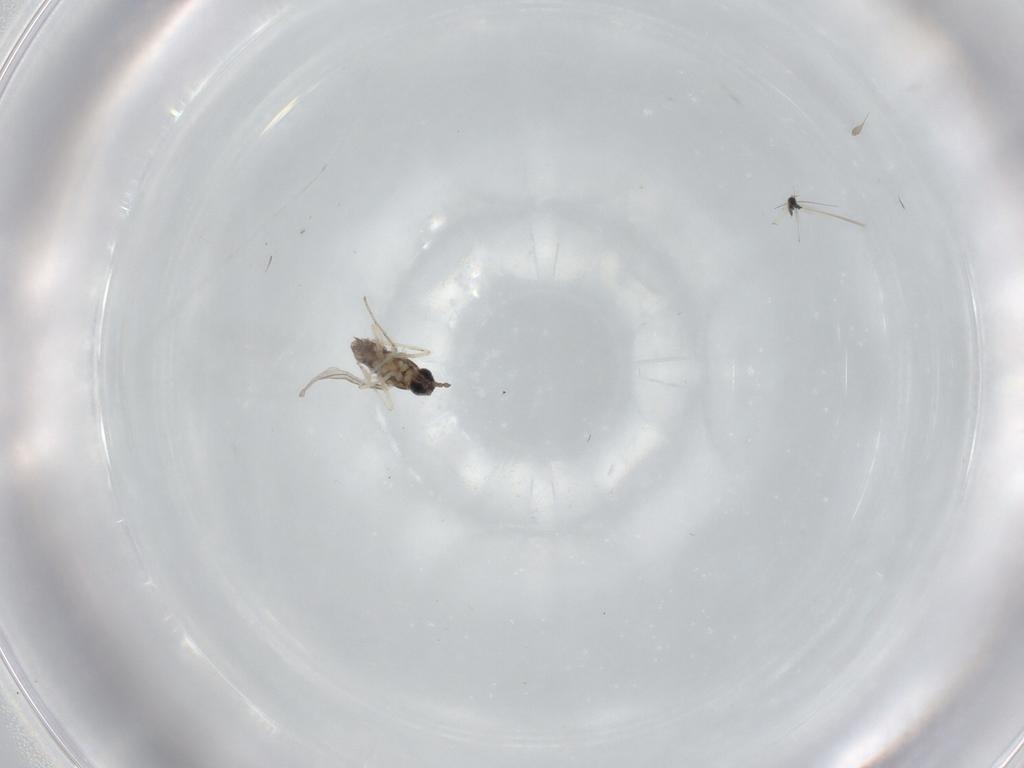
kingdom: Animalia
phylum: Arthropoda
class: Insecta
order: Diptera
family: Cecidomyiidae
